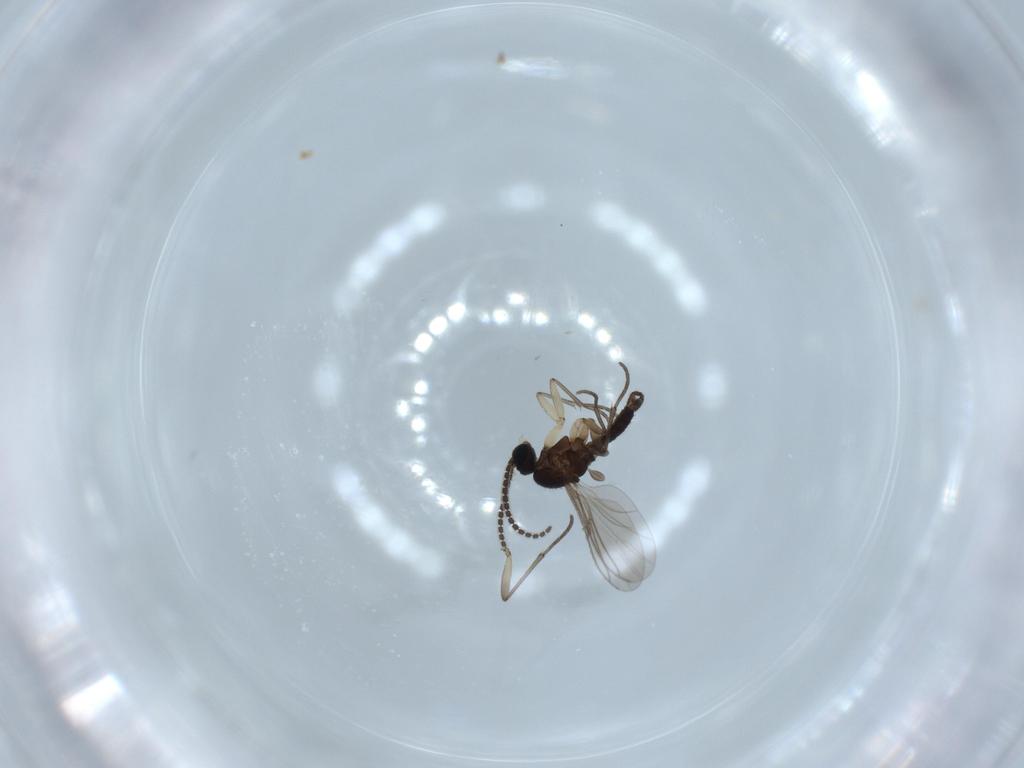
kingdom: Animalia
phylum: Arthropoda
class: Insecta
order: Diptera
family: Sciaridae
